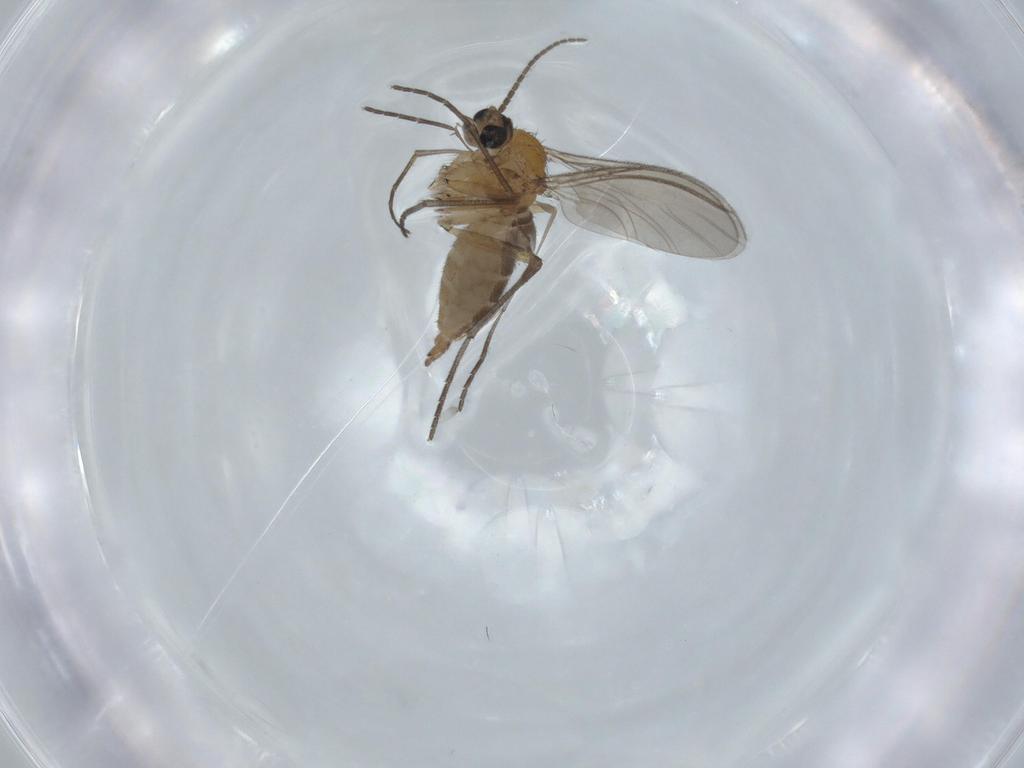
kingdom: Animalia
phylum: Arthropoda
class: Insecta
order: Diptera
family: Sciaridae
